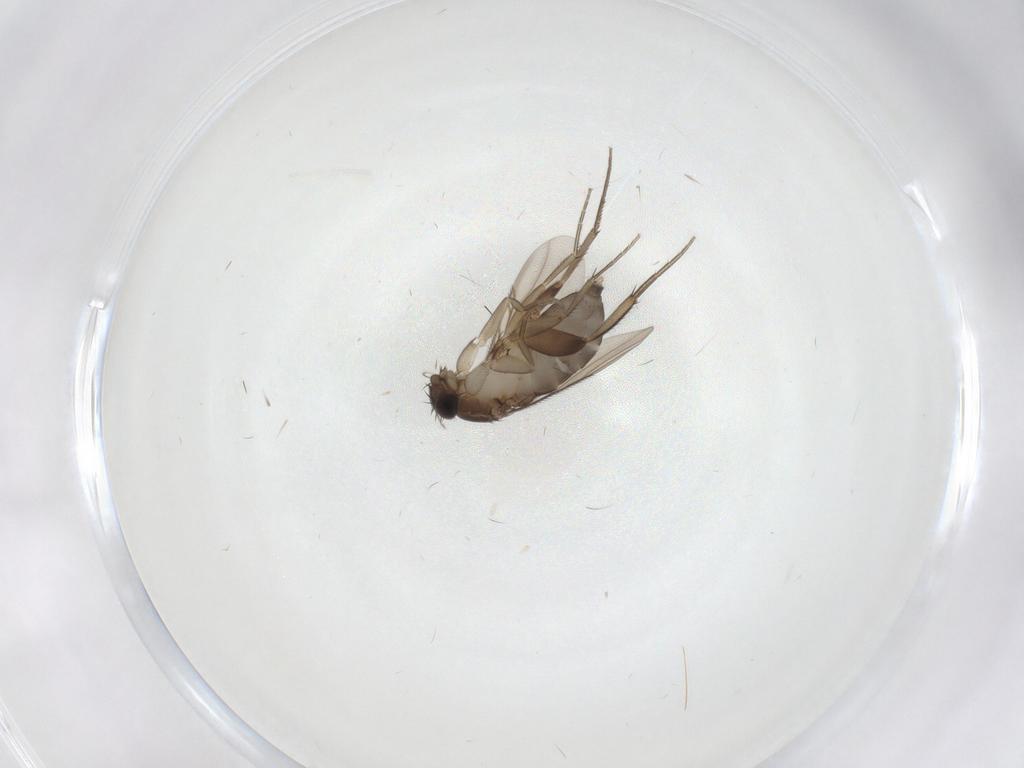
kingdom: Animalia
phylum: Arthropoda
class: Insecta
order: Diptera
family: Phoridae
